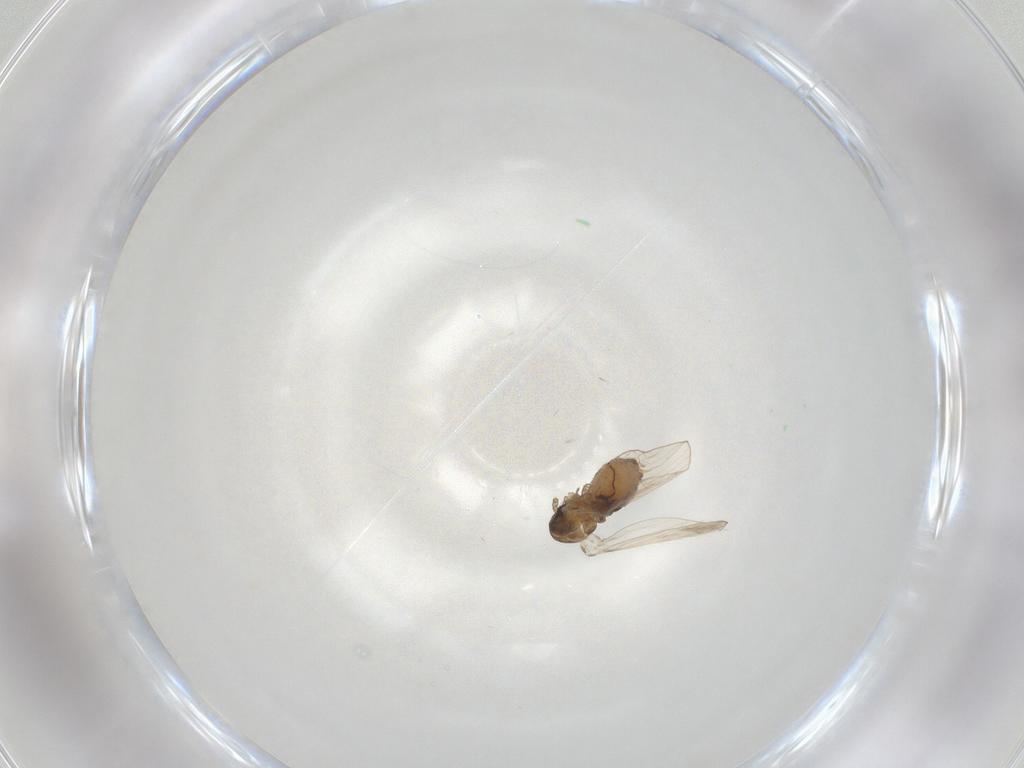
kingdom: Animalia
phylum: Arthropoda
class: Insecta
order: Diptera
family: Psychodidae
